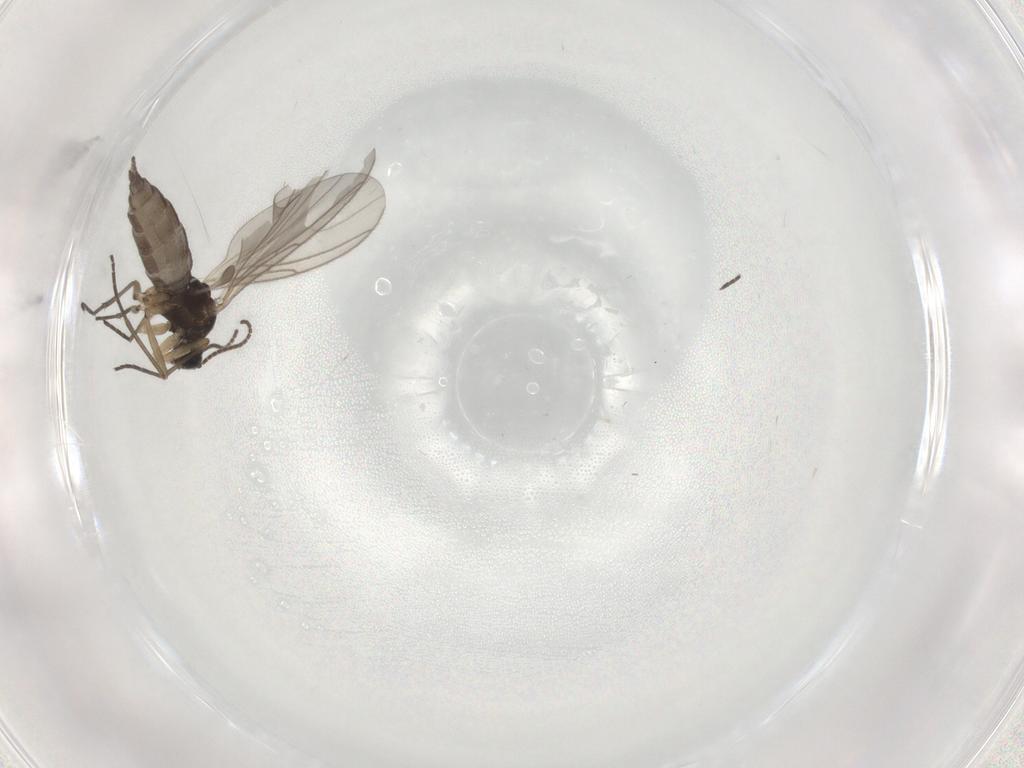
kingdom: Animalia
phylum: Arthropoda
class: Insecta
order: Diptera
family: Sciaridae
